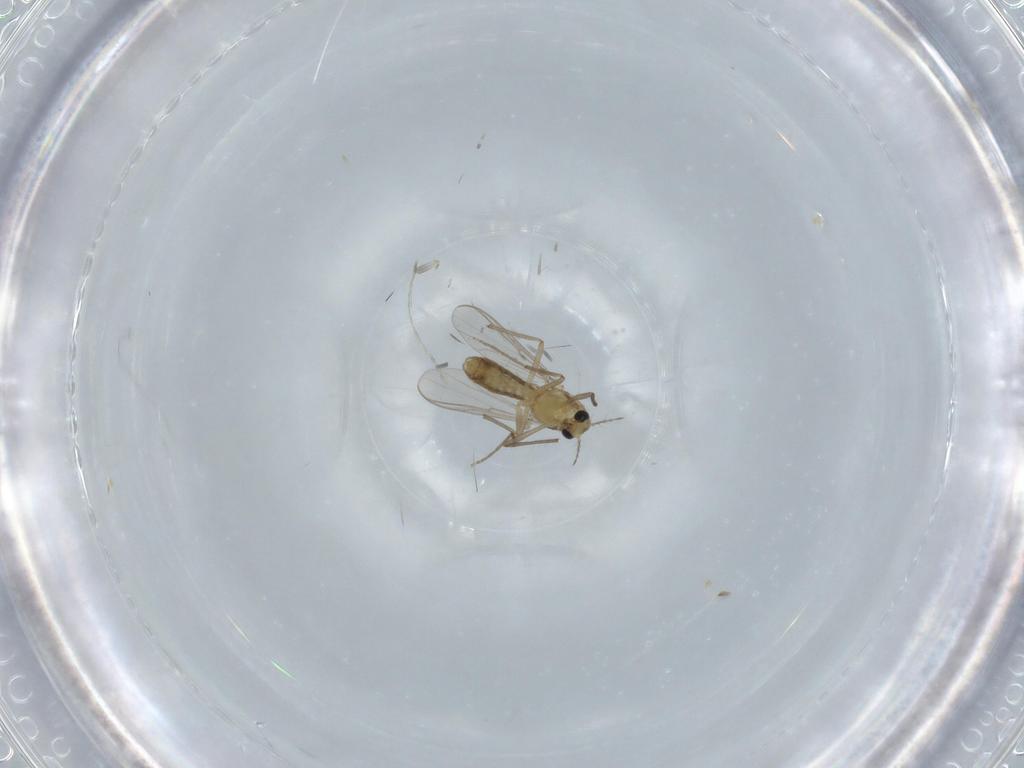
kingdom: Animalia
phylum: Arthropoda
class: Insecta
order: Diptera
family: Chironomidae
